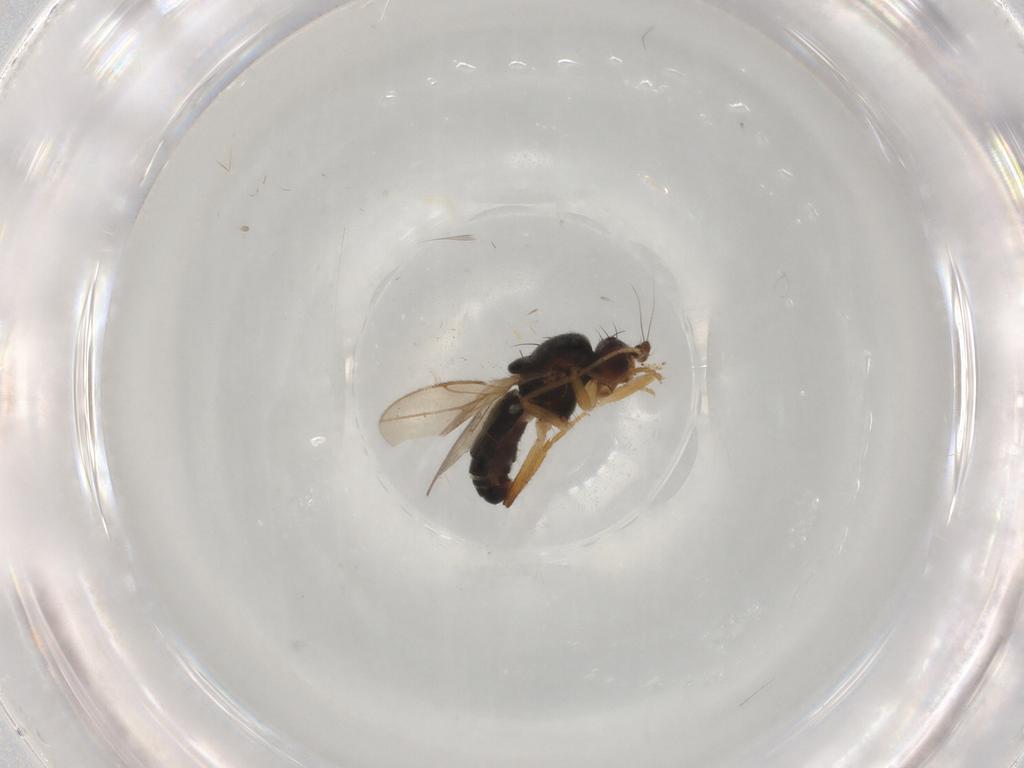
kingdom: Animalia
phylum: Arthropoda
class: Insecta
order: Diptera
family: Sphaeroceridae
